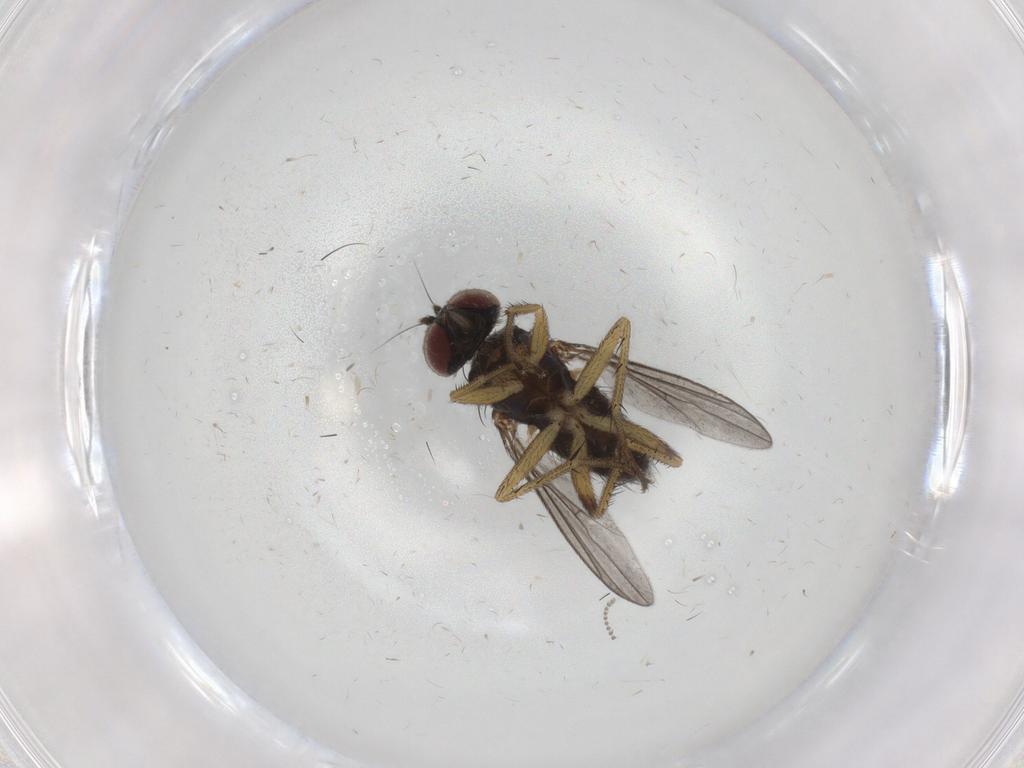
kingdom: Animalia
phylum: Arthropoda
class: Insecta
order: Diptera
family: Dolichopodidae
